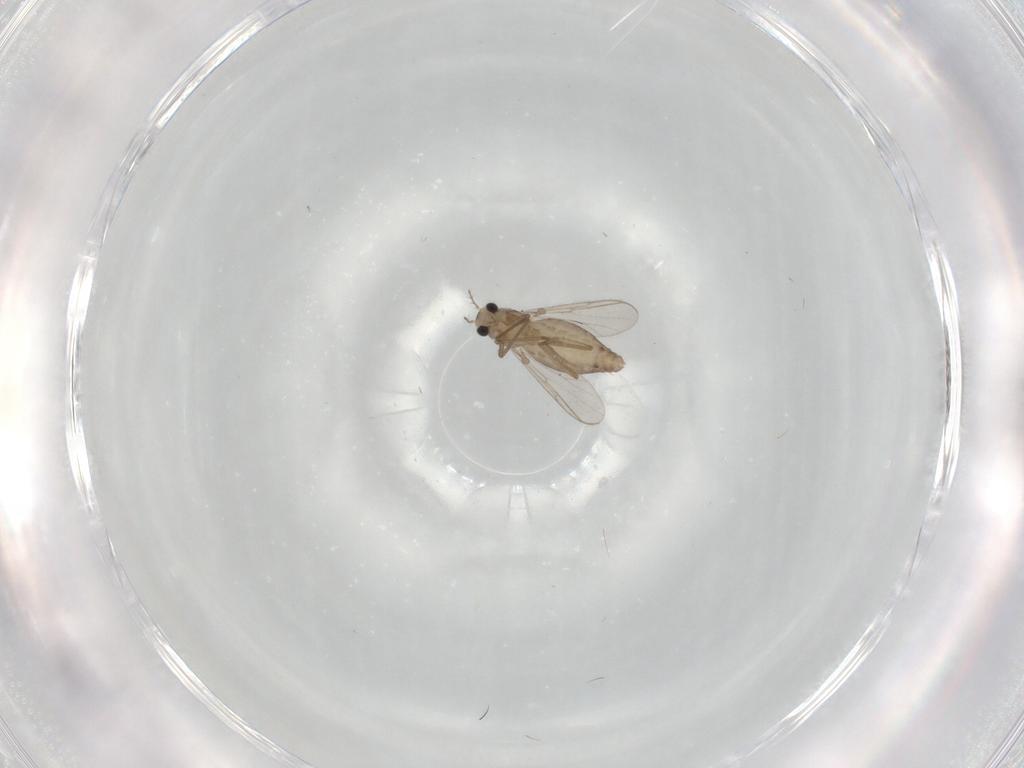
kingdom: Animalia
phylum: Arthropoda
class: Insecta
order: Diptera
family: Chironomidae
